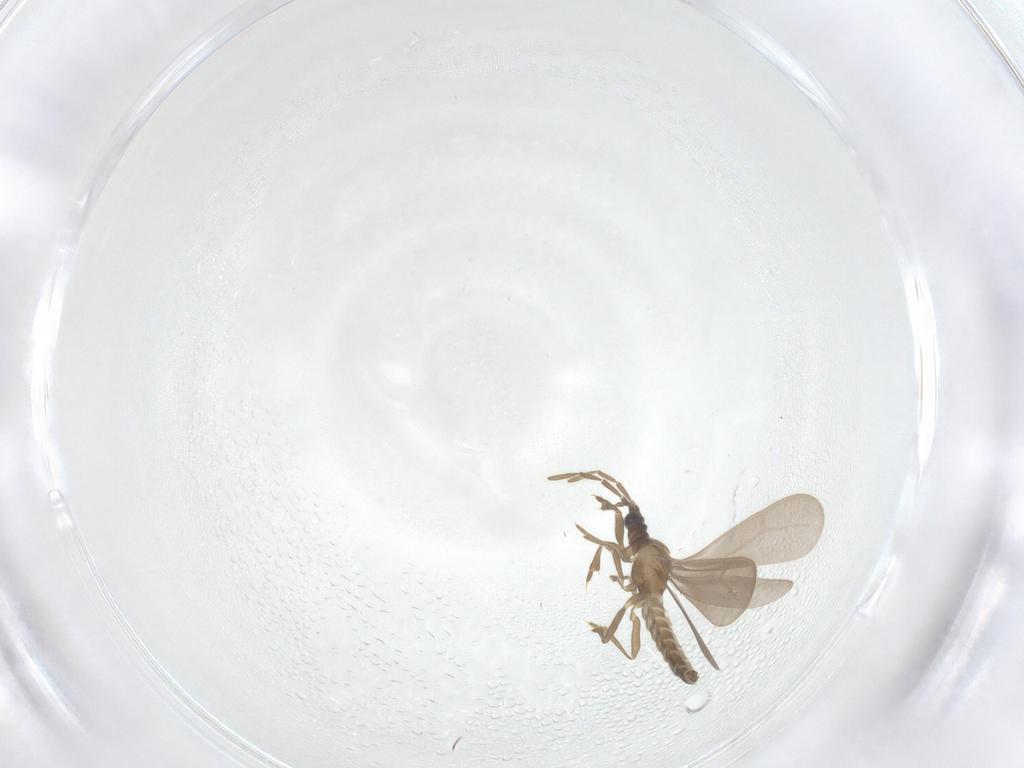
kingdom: Animalia
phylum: Arthropoda
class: Insecta
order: Hemiptera
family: Enicocephalidae
